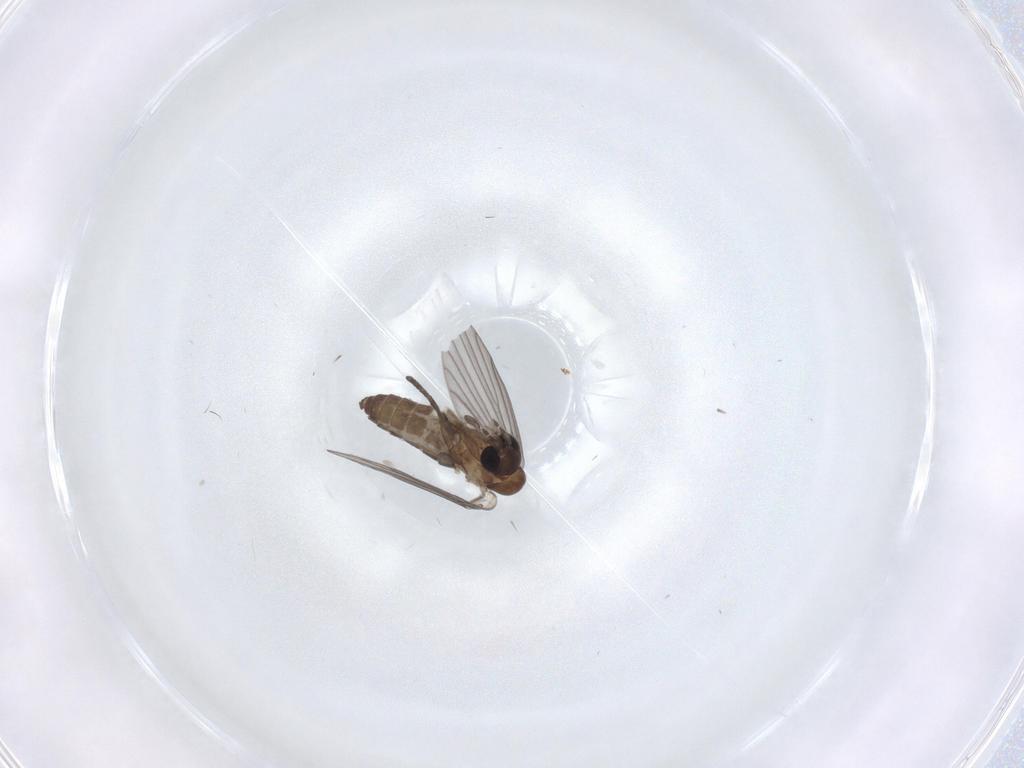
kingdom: Animalia
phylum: Arthropoda
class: Insecta
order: Diptera
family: Psychodidae
